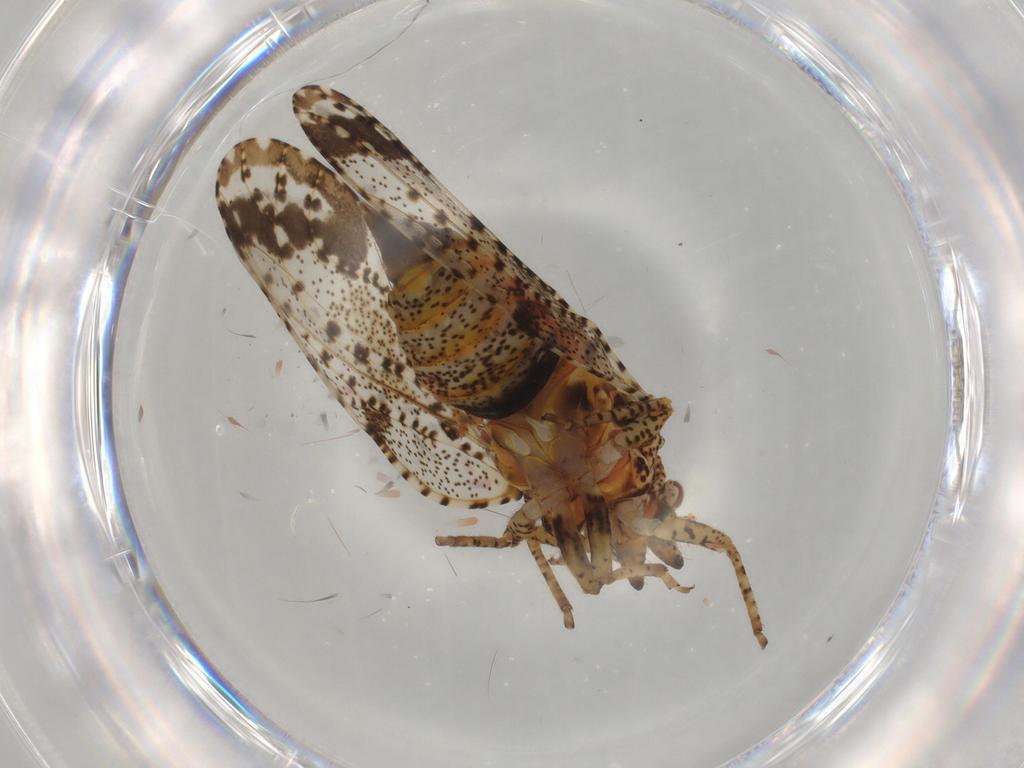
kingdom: Animalia
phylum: Arthropoda
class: Insecta
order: Hemiptera
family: Psyllidae
